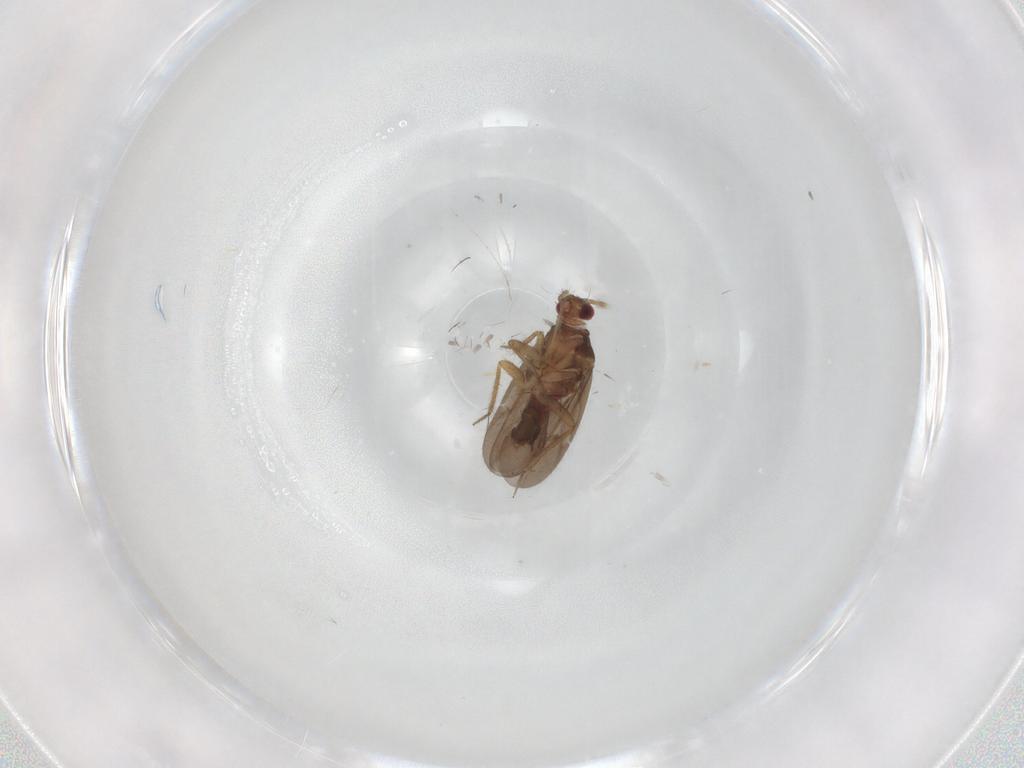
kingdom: Animalia
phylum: Arthropoda
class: Insecta
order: Hemiptera
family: Ceratocombidae
